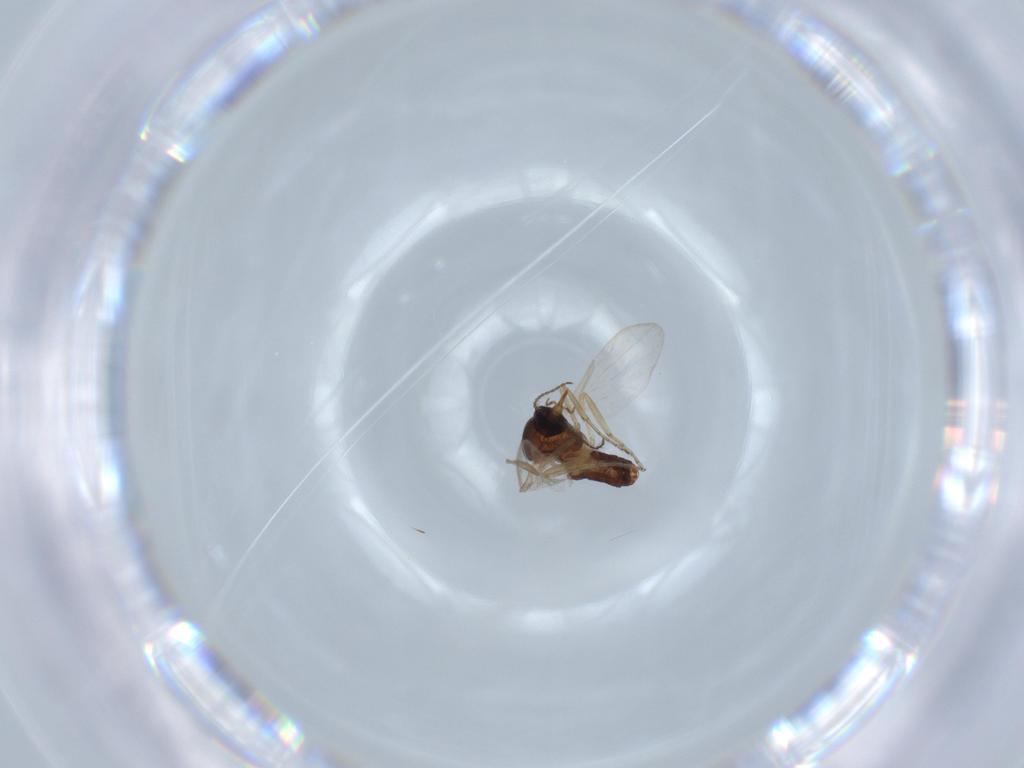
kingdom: Animalia
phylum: Arthropoda
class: Insecta
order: Diptera
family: Ceratopogonidae
